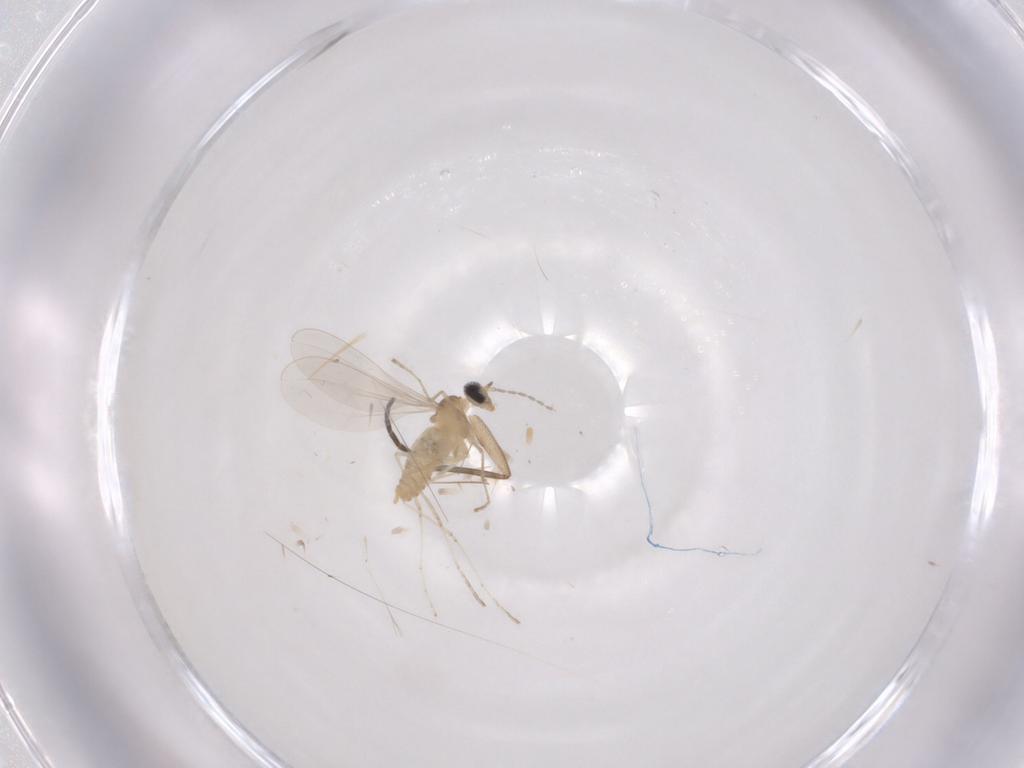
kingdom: Animalia
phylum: Arthropoda
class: Insecta
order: Diptera
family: Cecidomyiidae
